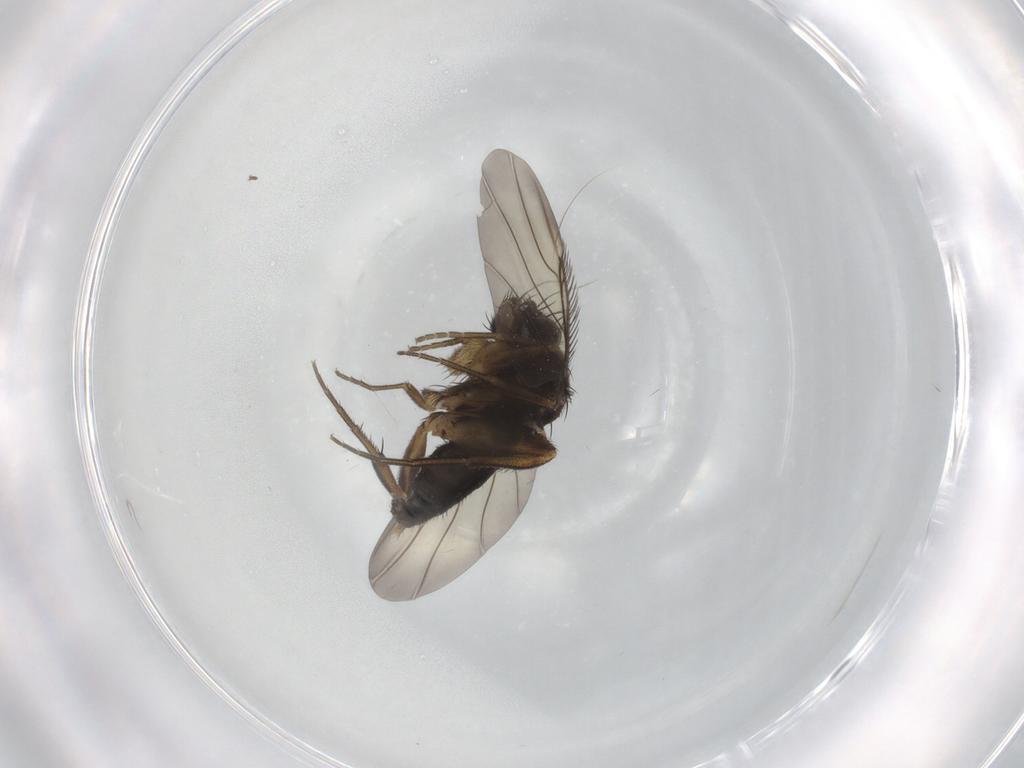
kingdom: Animalia
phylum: Arthropoda
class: Insecta
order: Diptera
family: Phoridae
